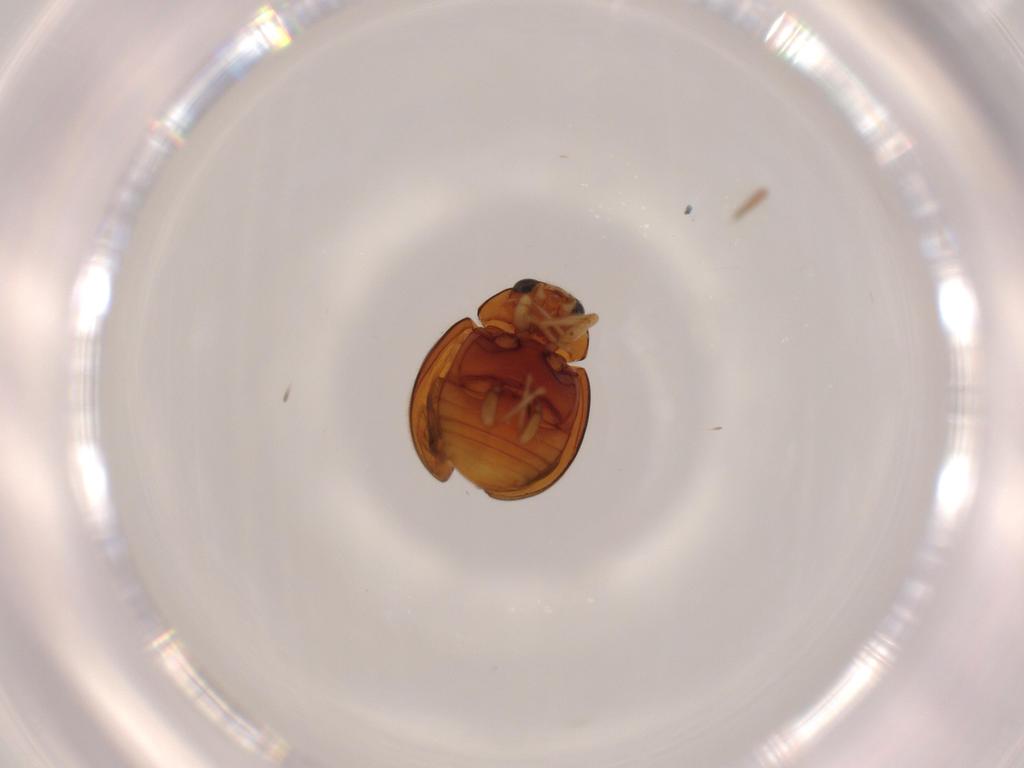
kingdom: Animalia
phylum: Arthropoda
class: Insecta
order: Coleoptera
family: Coccinellidae
